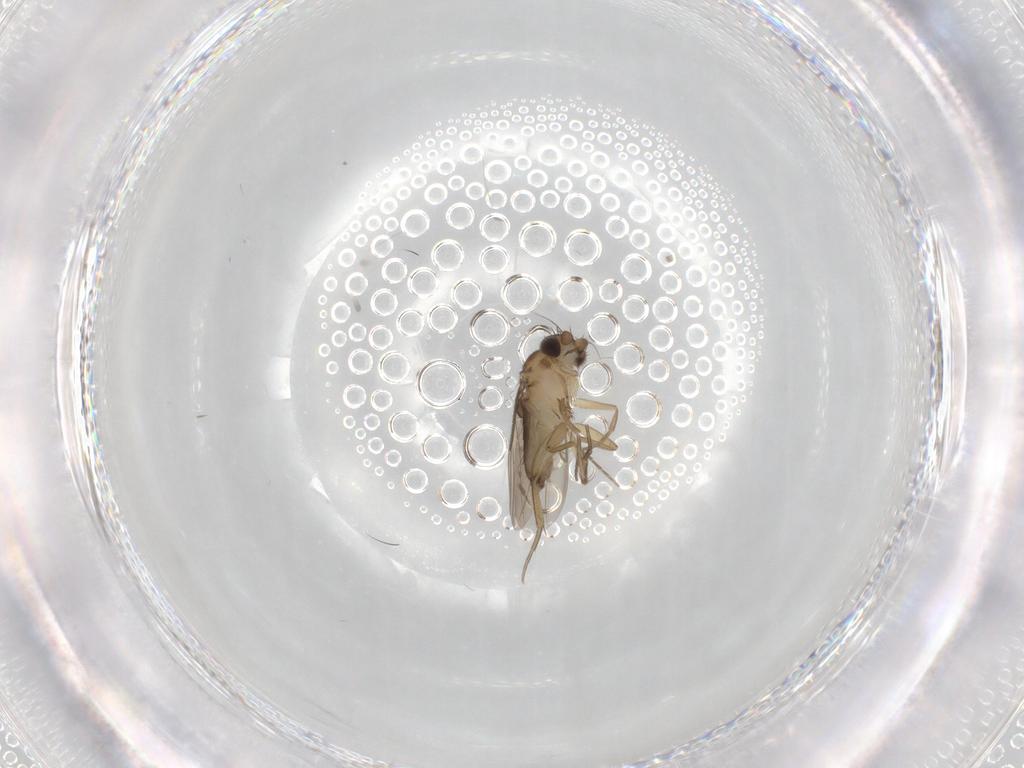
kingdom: Animalia
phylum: Arthropoda
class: Insecta
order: Diptera
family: Phoridae
